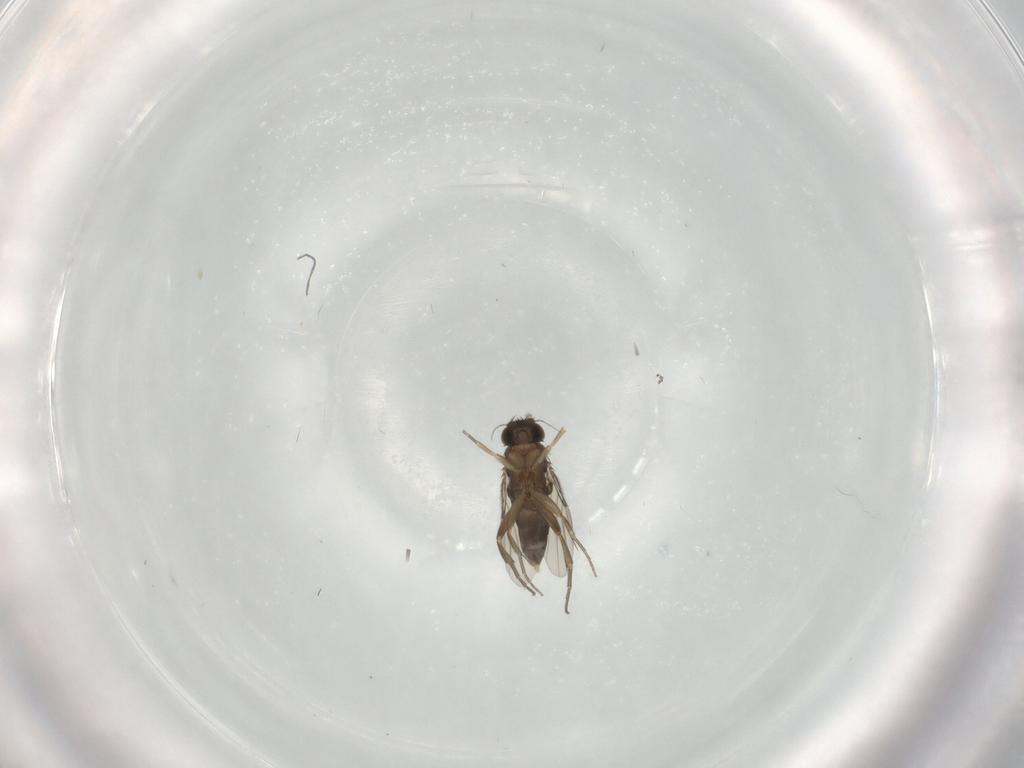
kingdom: Animalia
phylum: Arthropoda
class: Insecta
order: Diptera
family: Phoridae
